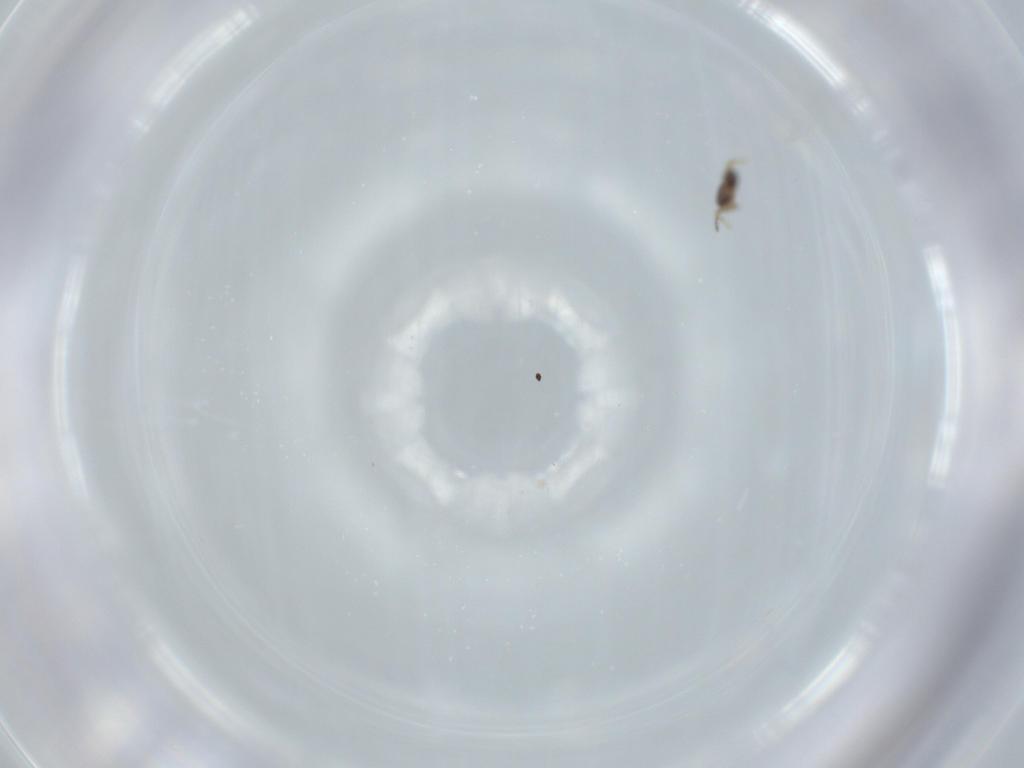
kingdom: Animalia
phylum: Arthropoda
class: Insecta
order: Thysanoptera
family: Phlaeothripidae
